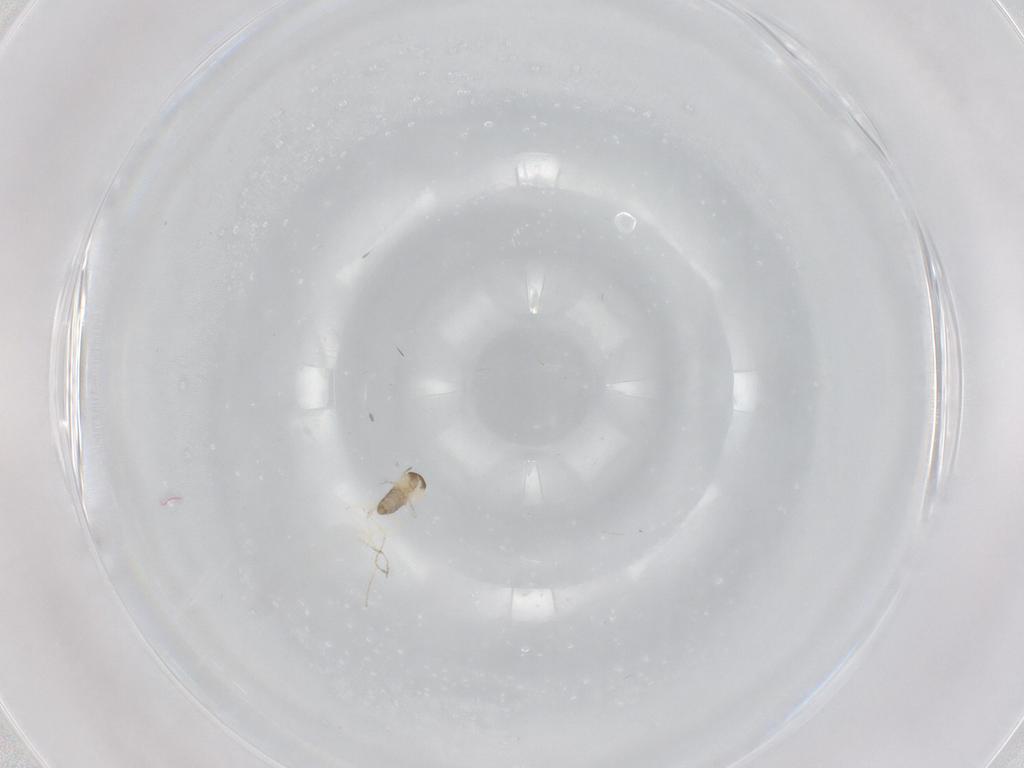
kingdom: Animalia
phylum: Arthropoda
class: Insecta
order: Diptera
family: Cecidomyiidae
